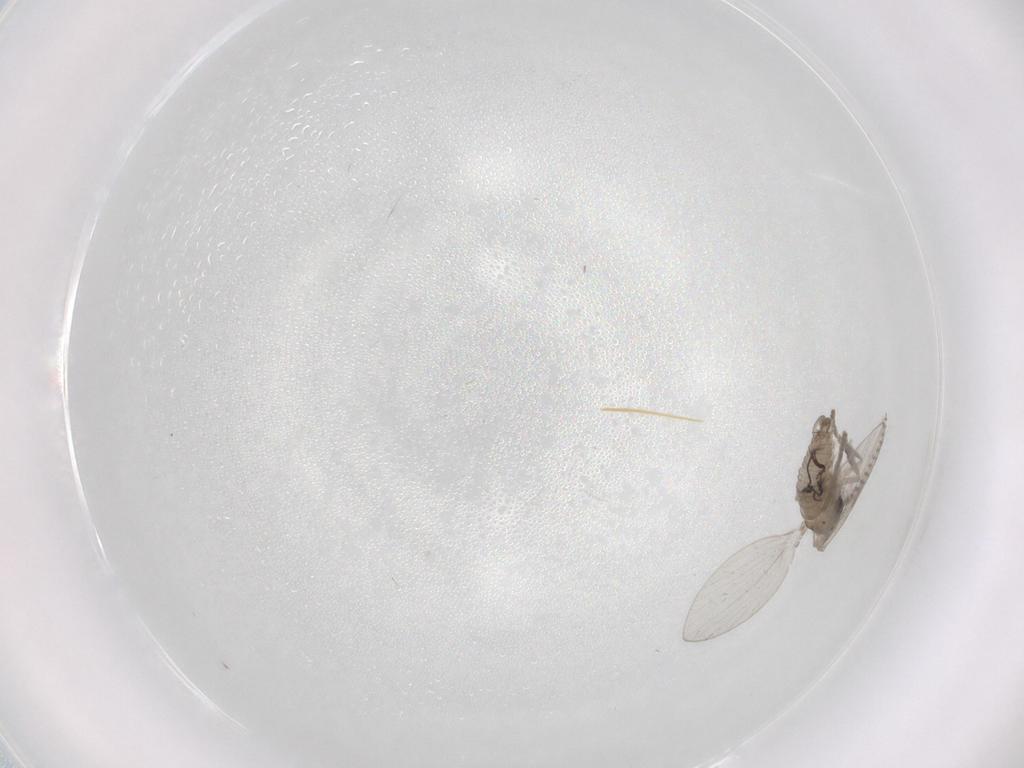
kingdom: Animalia
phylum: Arthropoda
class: Insecta
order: Diptera
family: Psychodidae
